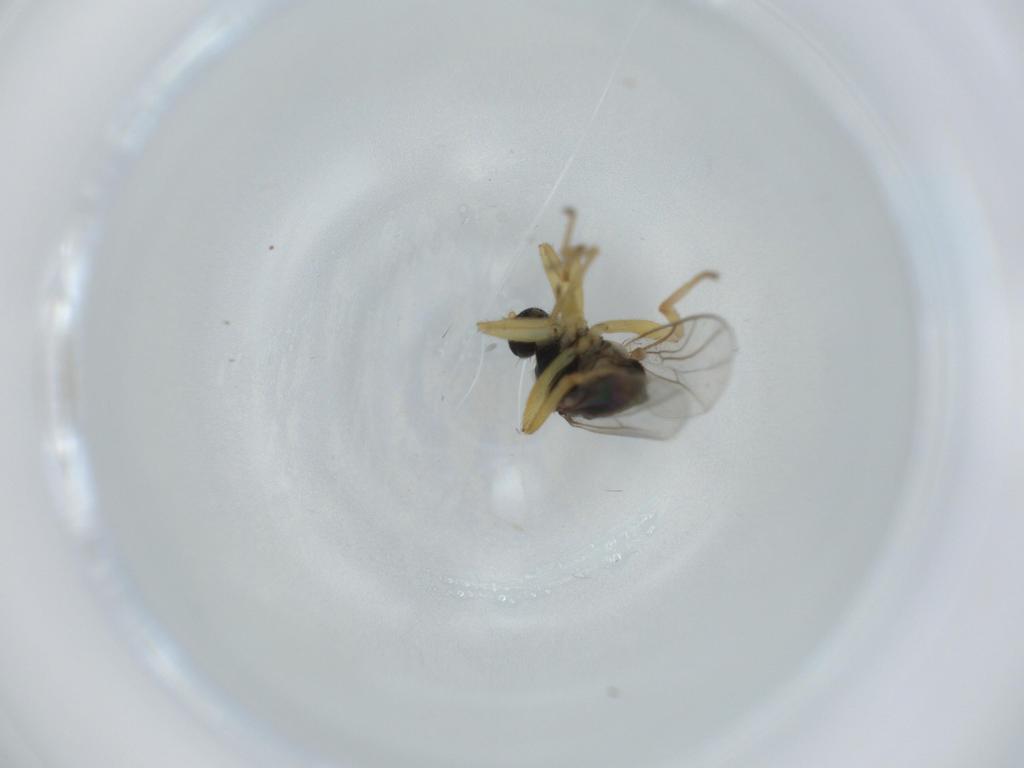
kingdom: Animalia
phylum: Arthropoda
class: Insecta
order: Diptera
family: Hybotidae
